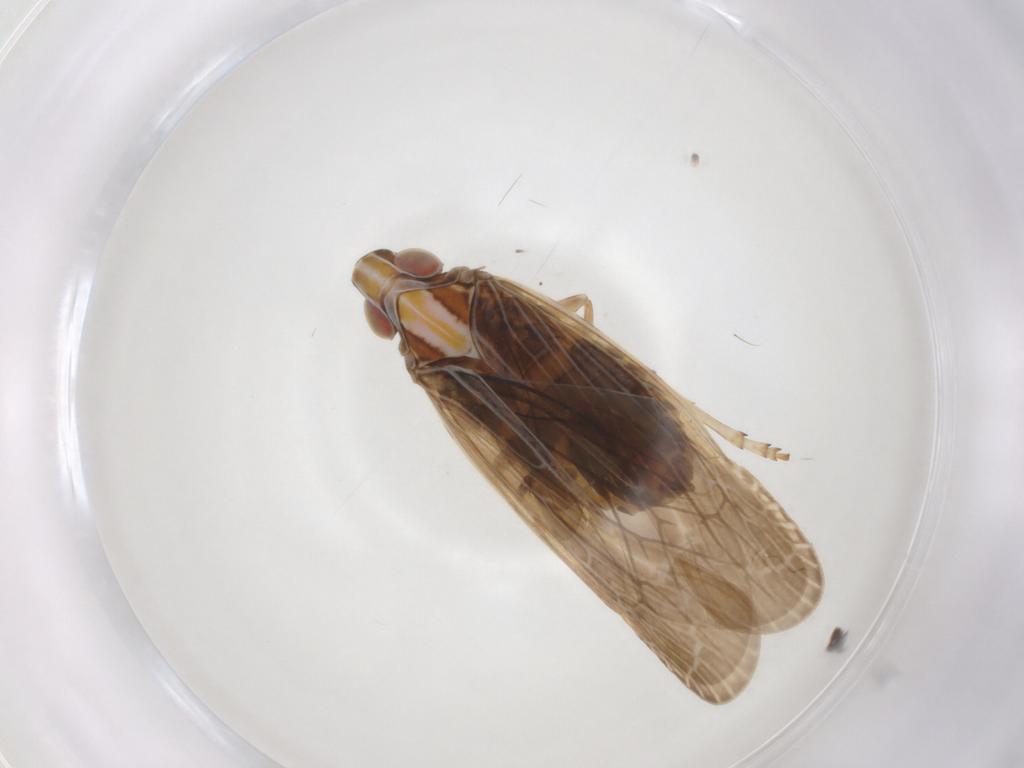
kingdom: Animalia
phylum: Arthropoda
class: Insecta
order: Hemiptera
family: Achilidae
